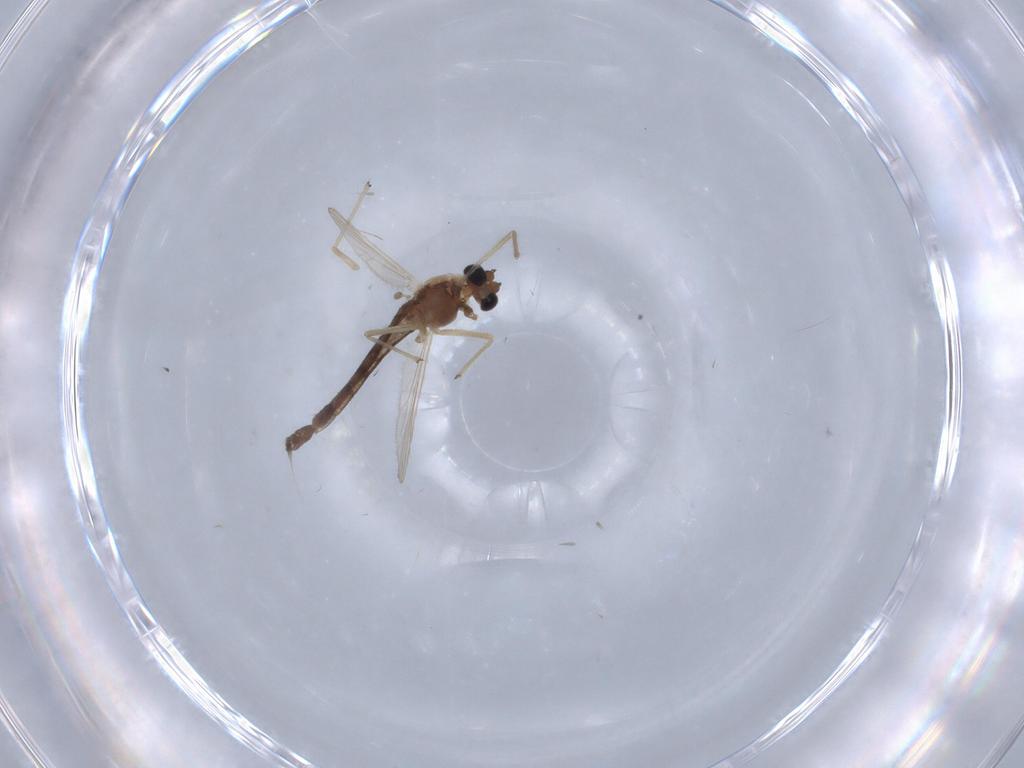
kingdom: Animalia
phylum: Arthropoda
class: Insecta
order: Diptera
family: Chironomidae
